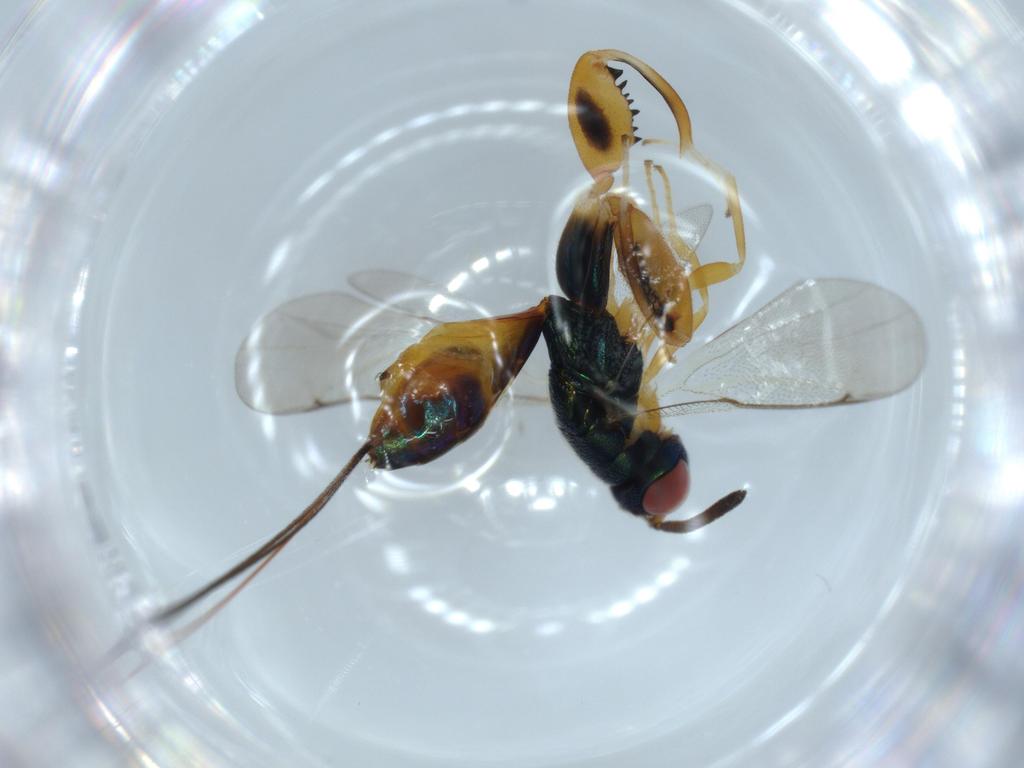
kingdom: Animalia
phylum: Arthropoda
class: Insecta
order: Hymenoptera
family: Torymidae
